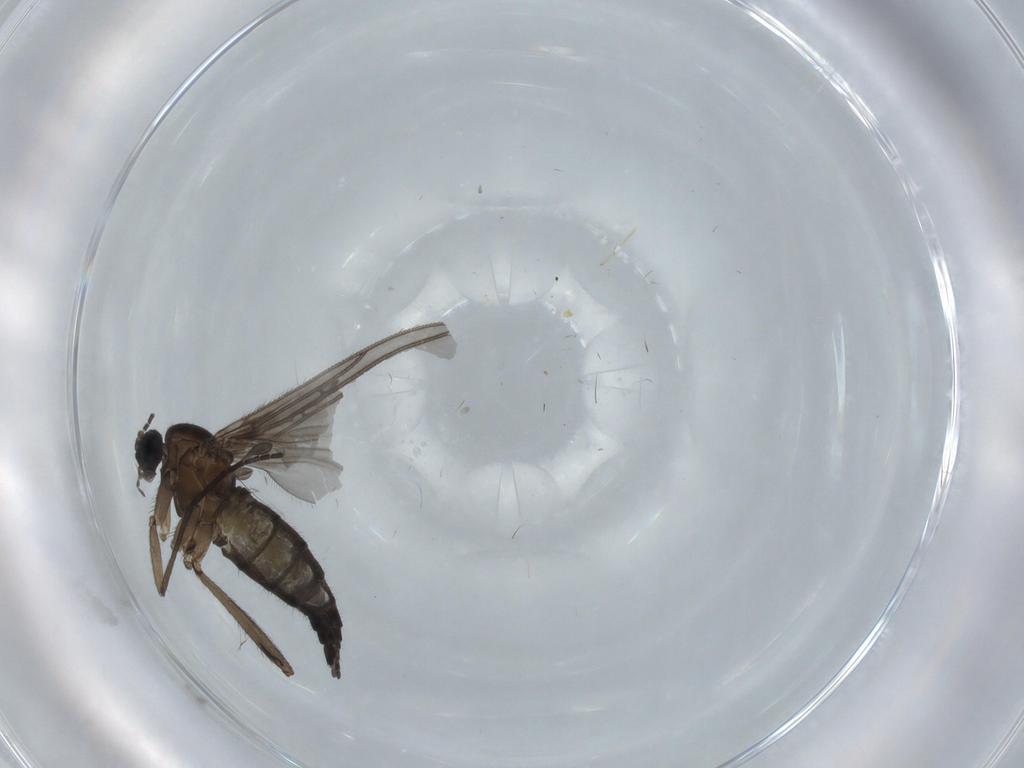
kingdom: Animalia
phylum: Arthropoda
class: Insecta
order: Diptera
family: Sciaridae
